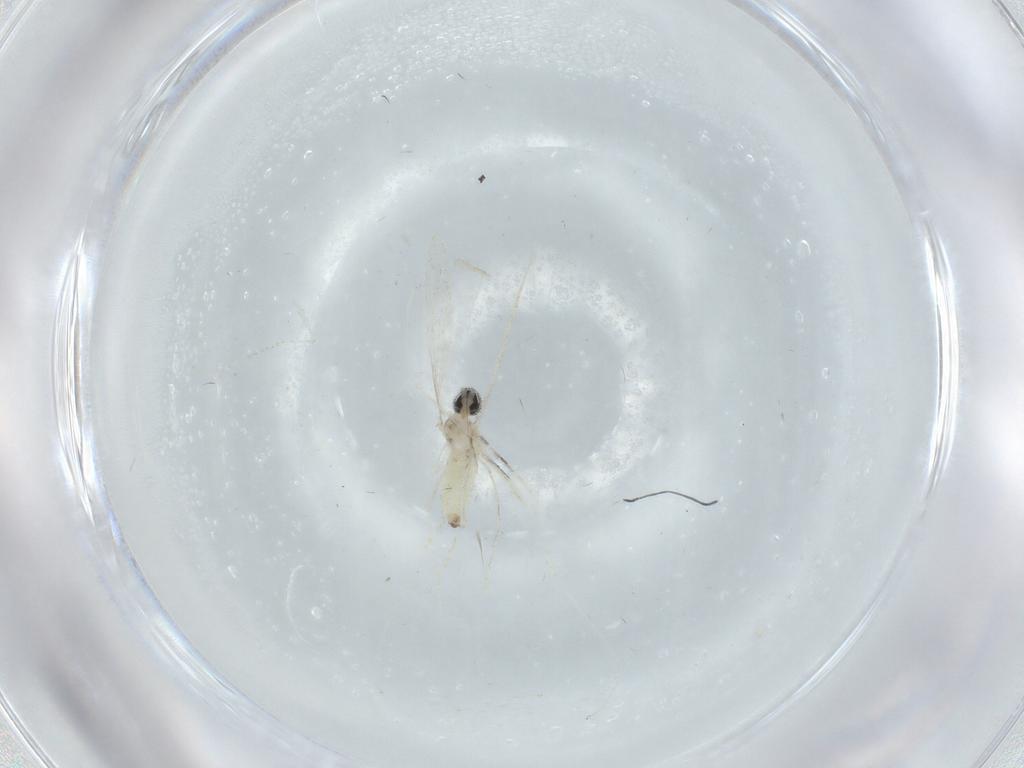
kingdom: Animalia
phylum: Arthropoda
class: Insecta
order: Diptera
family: Cecidomyiidae
